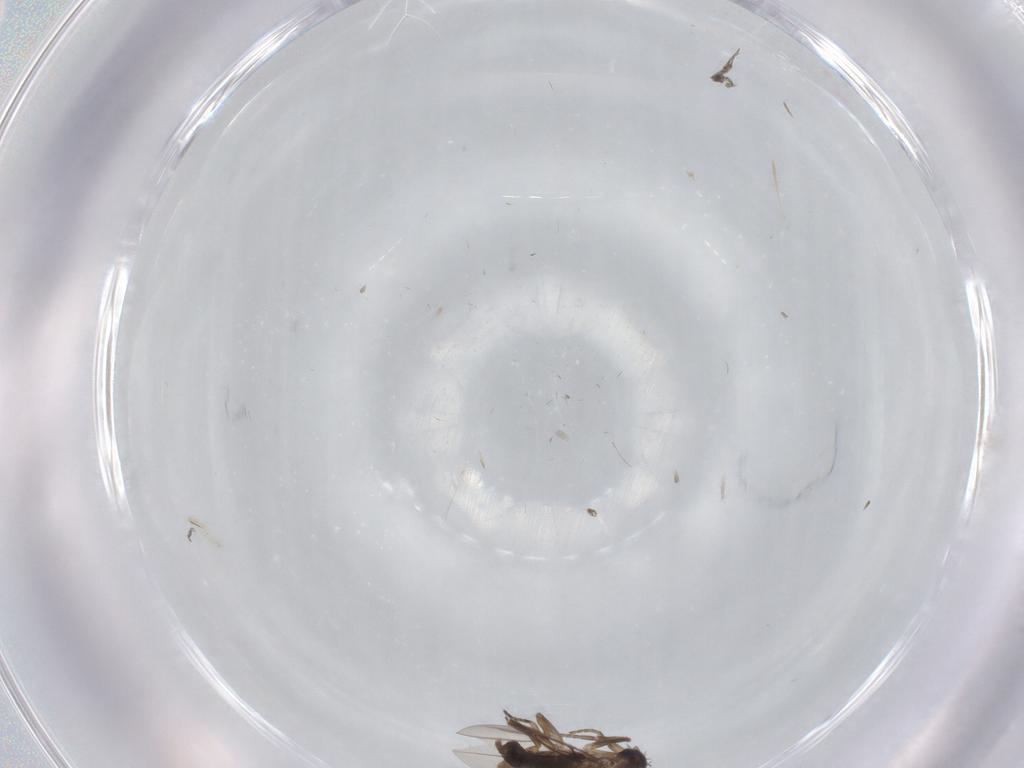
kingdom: Animalia
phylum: Arthropoda
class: Insecta
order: Diptera
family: Phoridae
